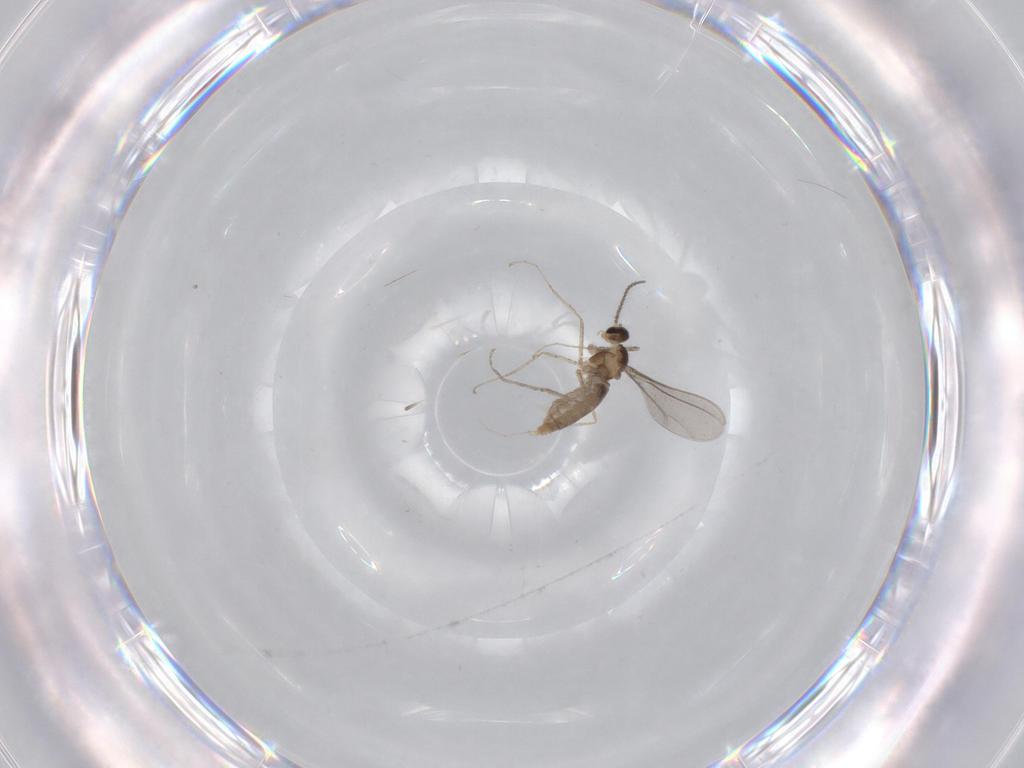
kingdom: Animalia
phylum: Arthropoda
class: Insecta
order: Diptera
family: Chironomidae
